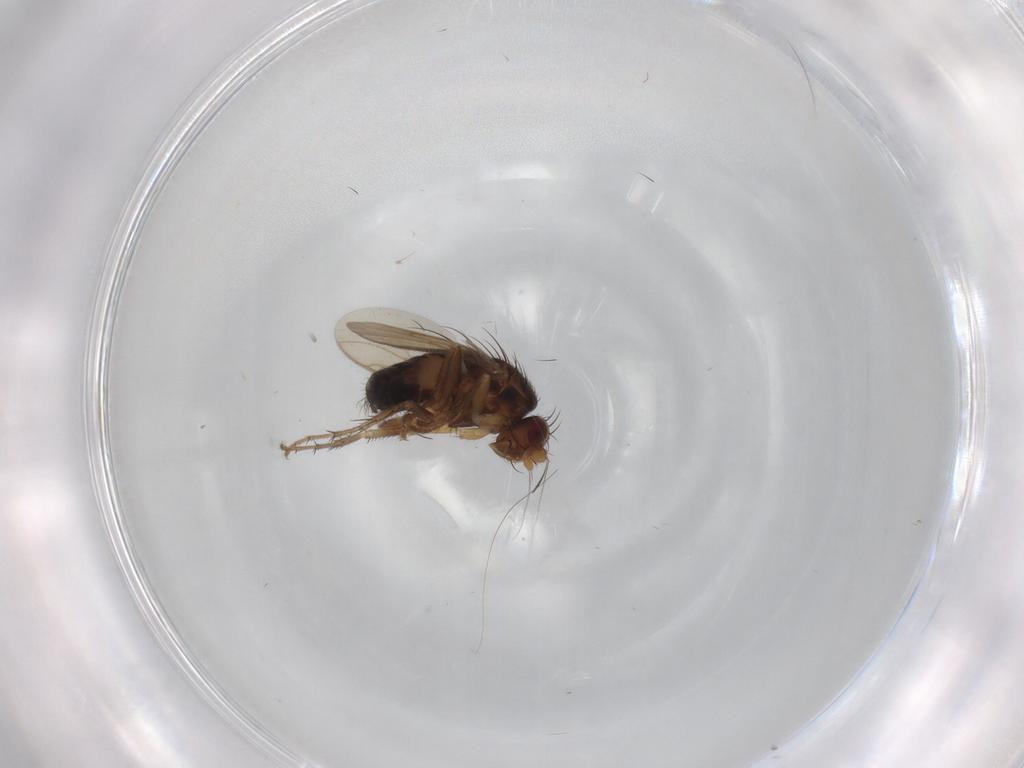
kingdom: Animalia
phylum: Arthropoda
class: Insecta
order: Diptera
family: Sphaeroceridae
